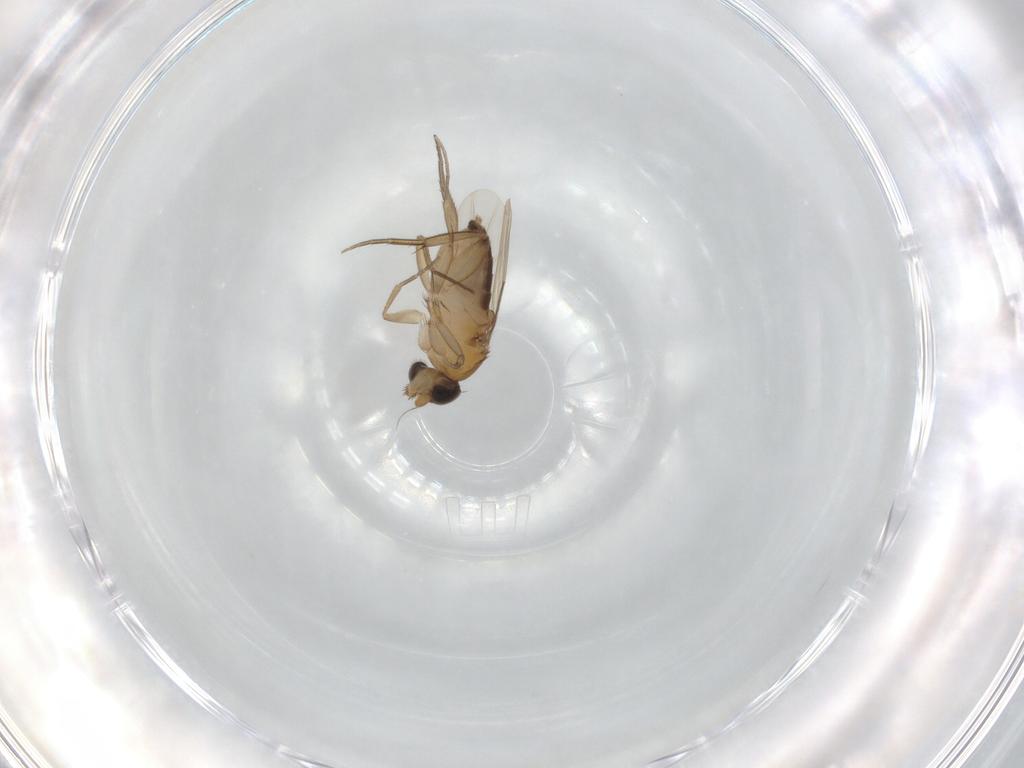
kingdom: Animalia
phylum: Arthropoda
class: Insecta
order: Diptera
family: Phoridae
